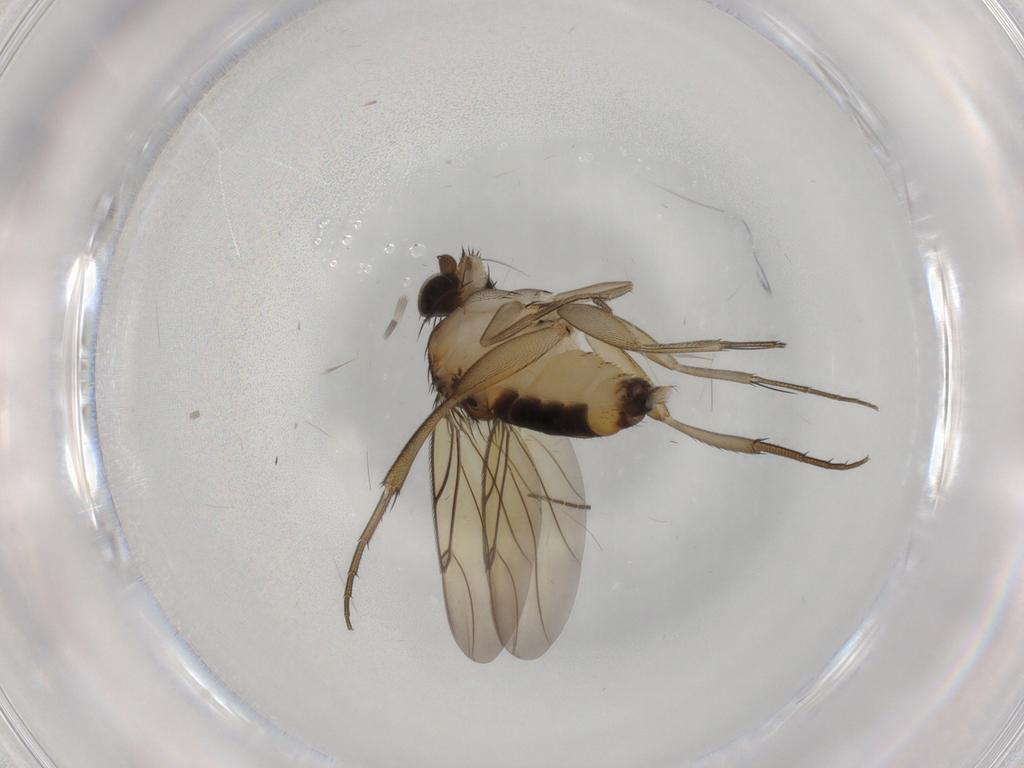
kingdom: Animalia
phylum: Arthropoda
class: Insecta
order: Diptera
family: Sciaridae
